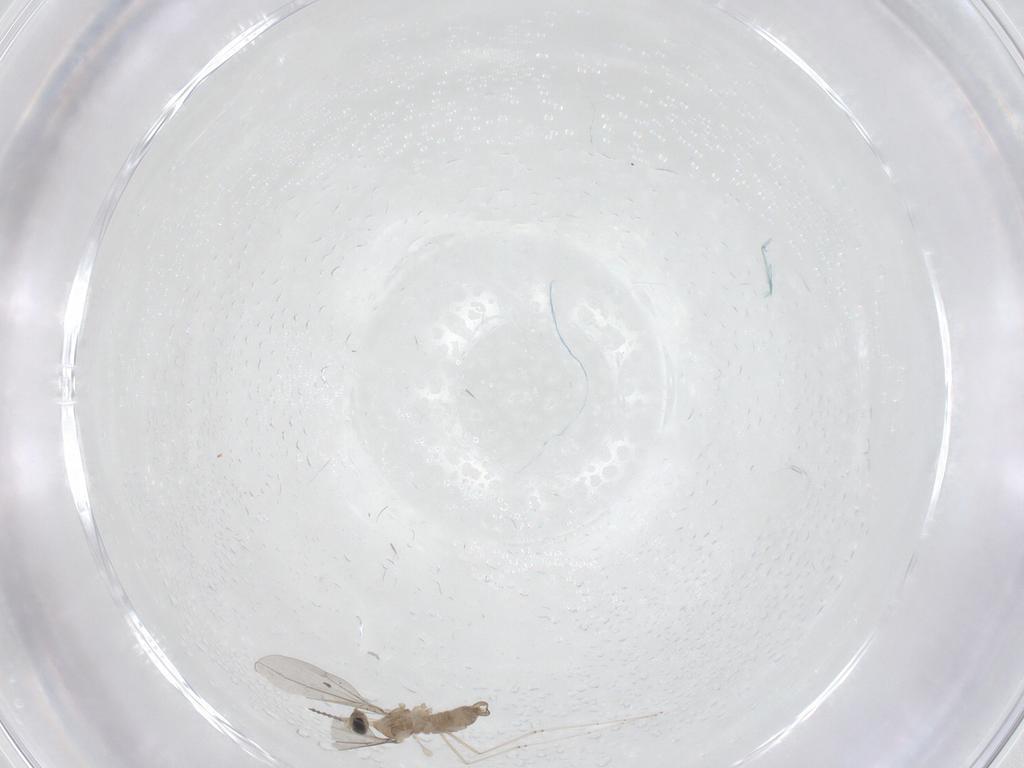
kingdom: Animalia
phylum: Arthropoda
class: Insecta
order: Diptera
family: Cecidomyiidae
